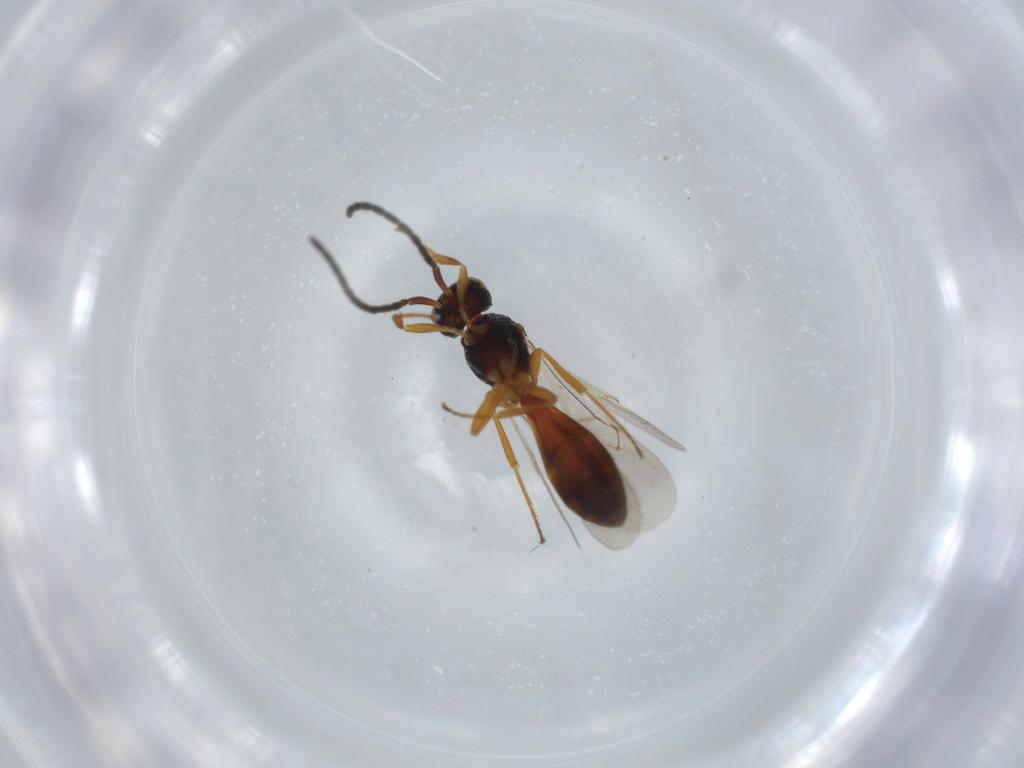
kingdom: Animalia
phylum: Arthropoda
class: Insecta
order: Hymenoptera
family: Scelionidae
